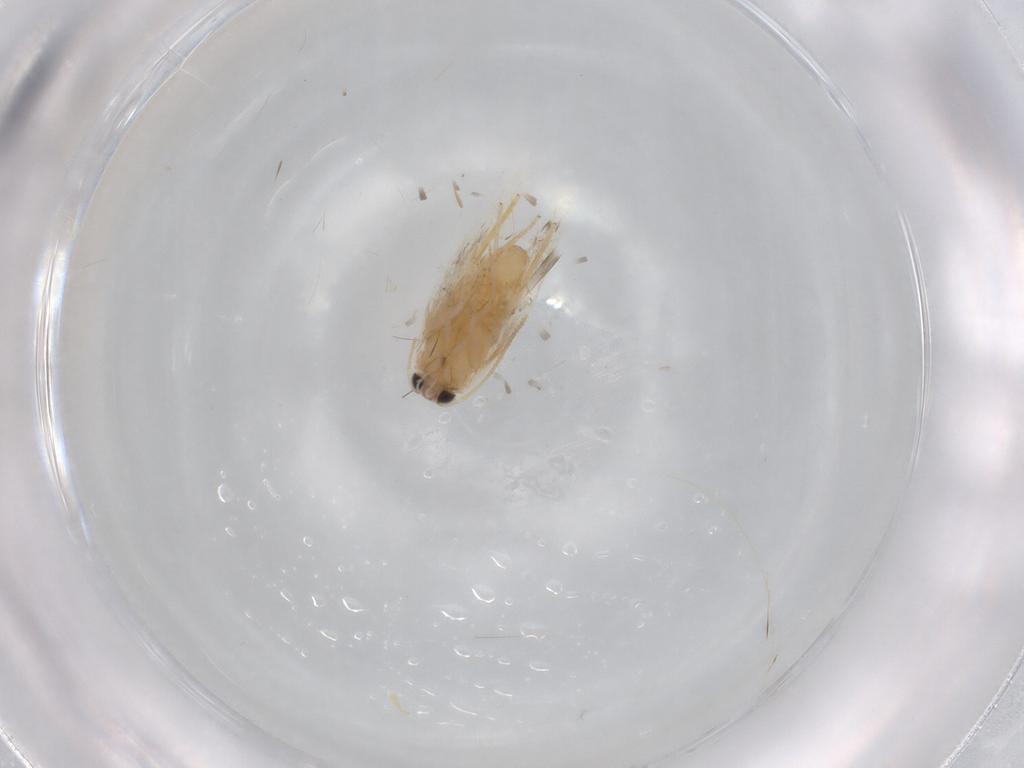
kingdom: Animalia
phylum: Arthropoda
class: Insecta
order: Lepidoptera
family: Nepticulidae
